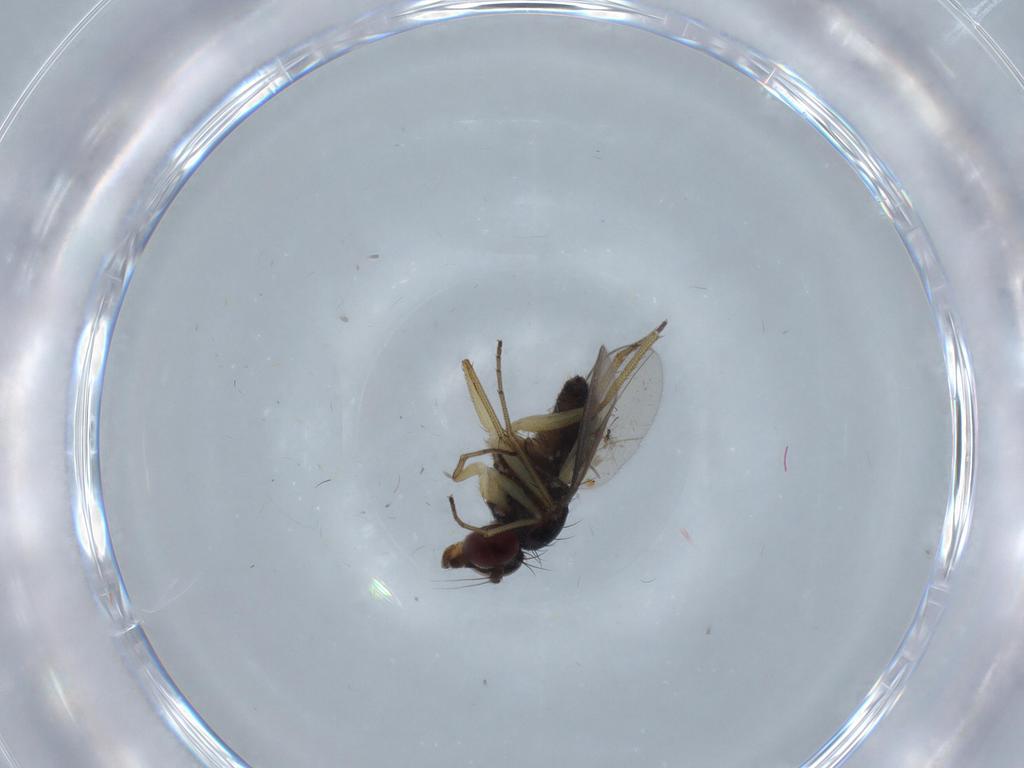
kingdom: Animalia
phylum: Arthropoda
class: Insecta
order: Diptera
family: Dolichopodidae
